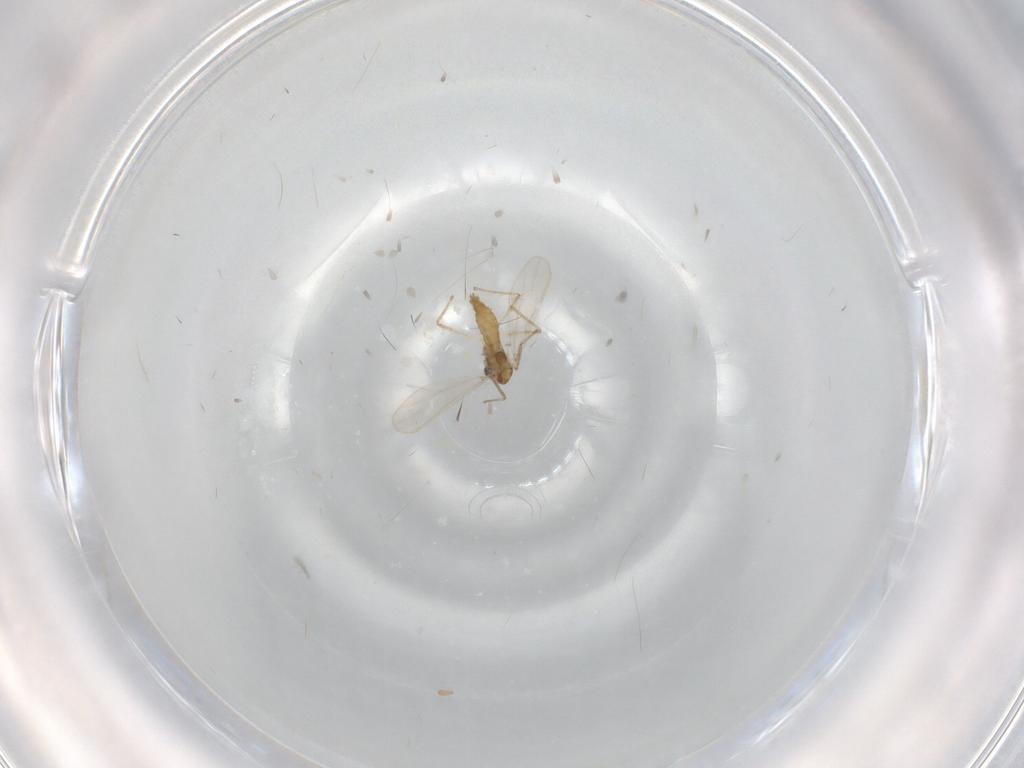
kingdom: Animalia
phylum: Arthropoda
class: Insecta
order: Diptera
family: Chironomidae
